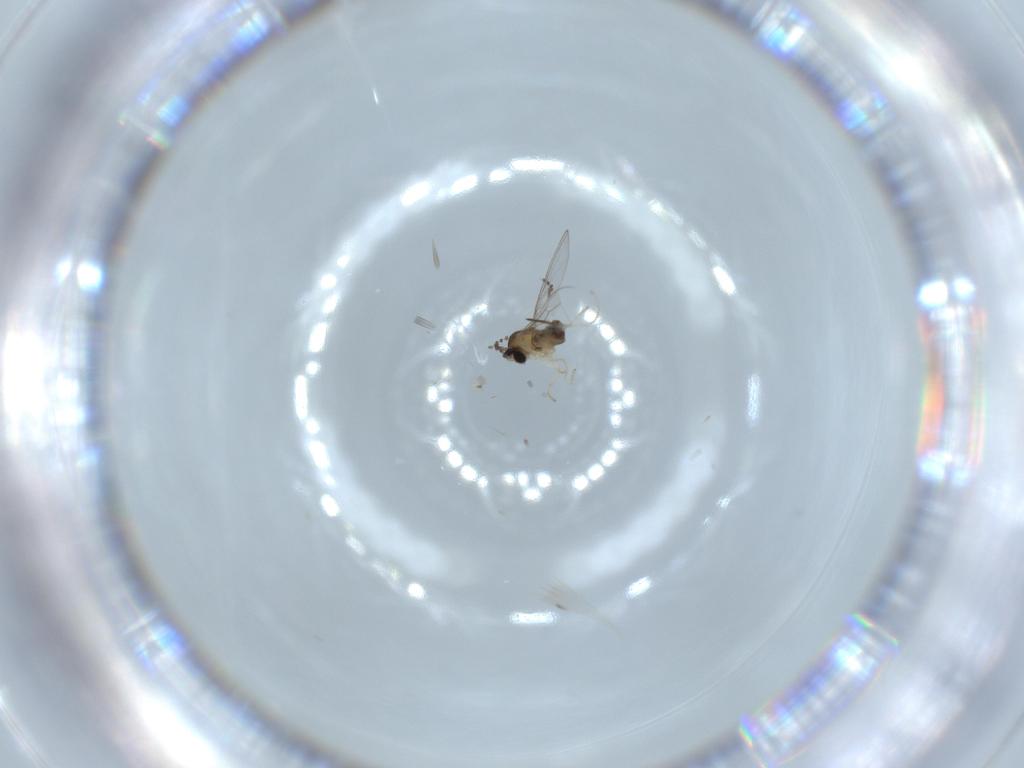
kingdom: Animalia
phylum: Arthropoda
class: Insecta
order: Diptera
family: Cecidomyiidae
